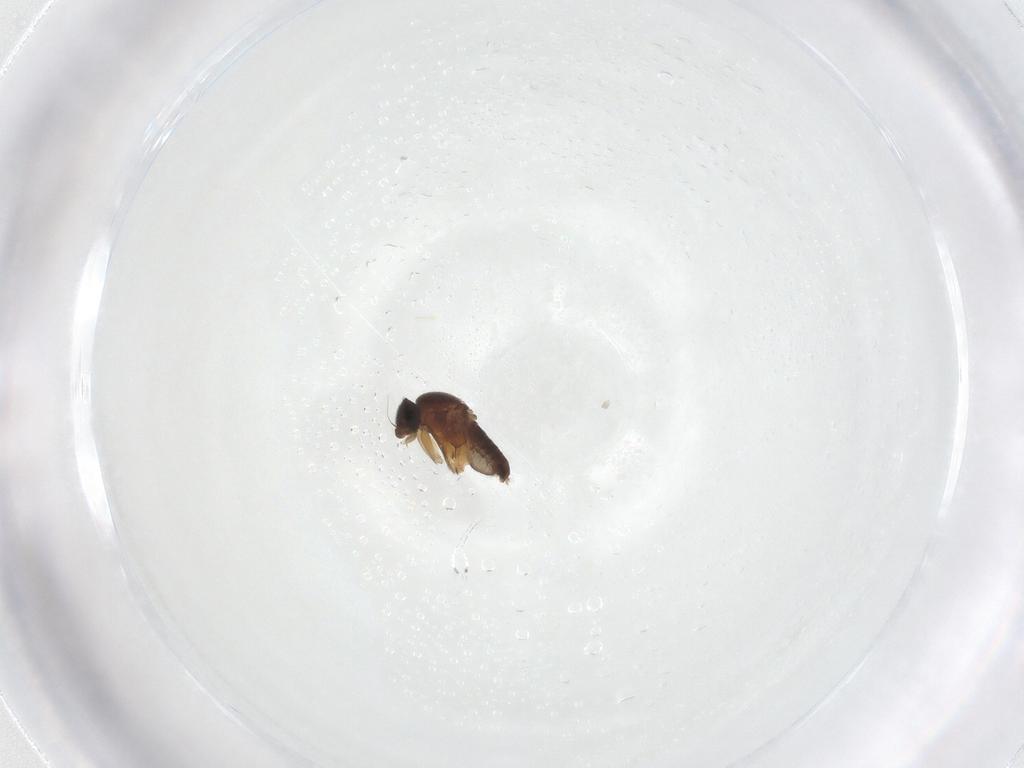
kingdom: Animalia
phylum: Arthropoda
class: Insecta
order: Diptera
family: Phoridae
